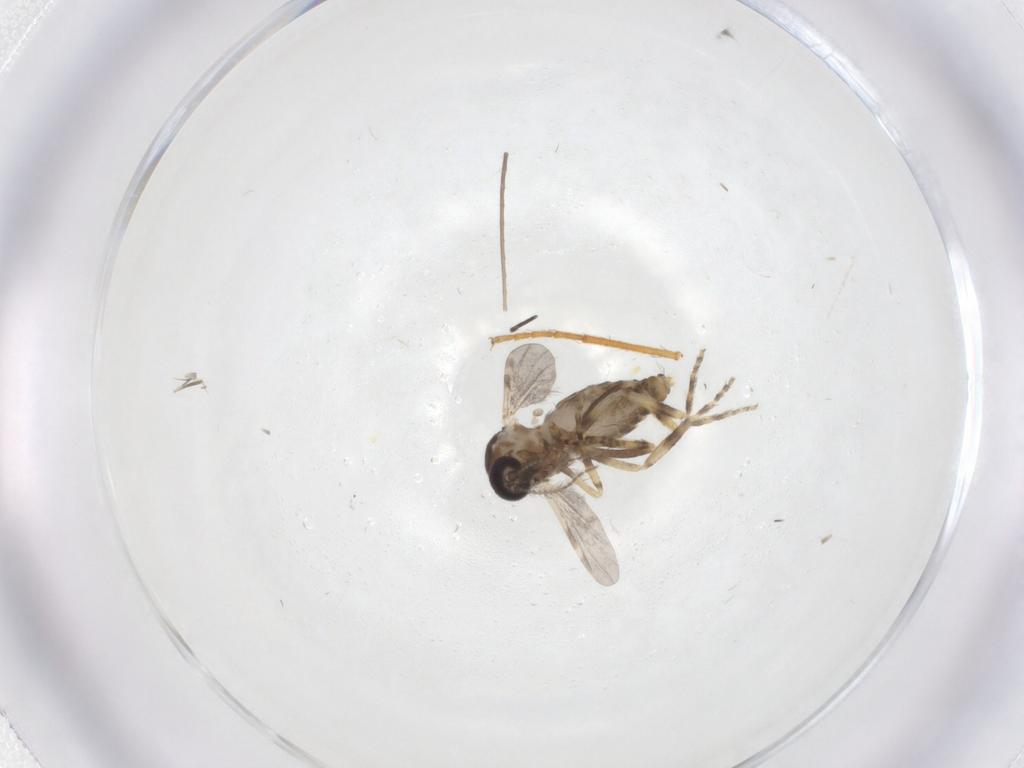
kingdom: Animalia
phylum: Arthropoda
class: Insecta
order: Diptera
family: Ceratopogonidae
